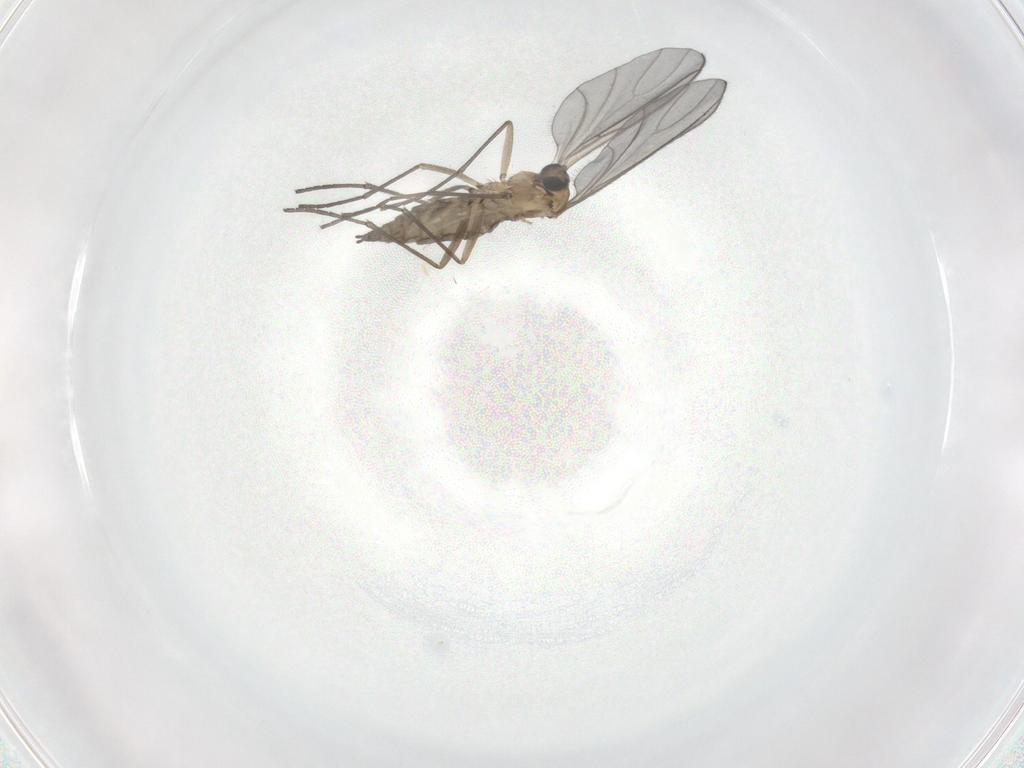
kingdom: Animalia
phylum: Arthropoda
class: Insecta
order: Diptera
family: Sciaridae
